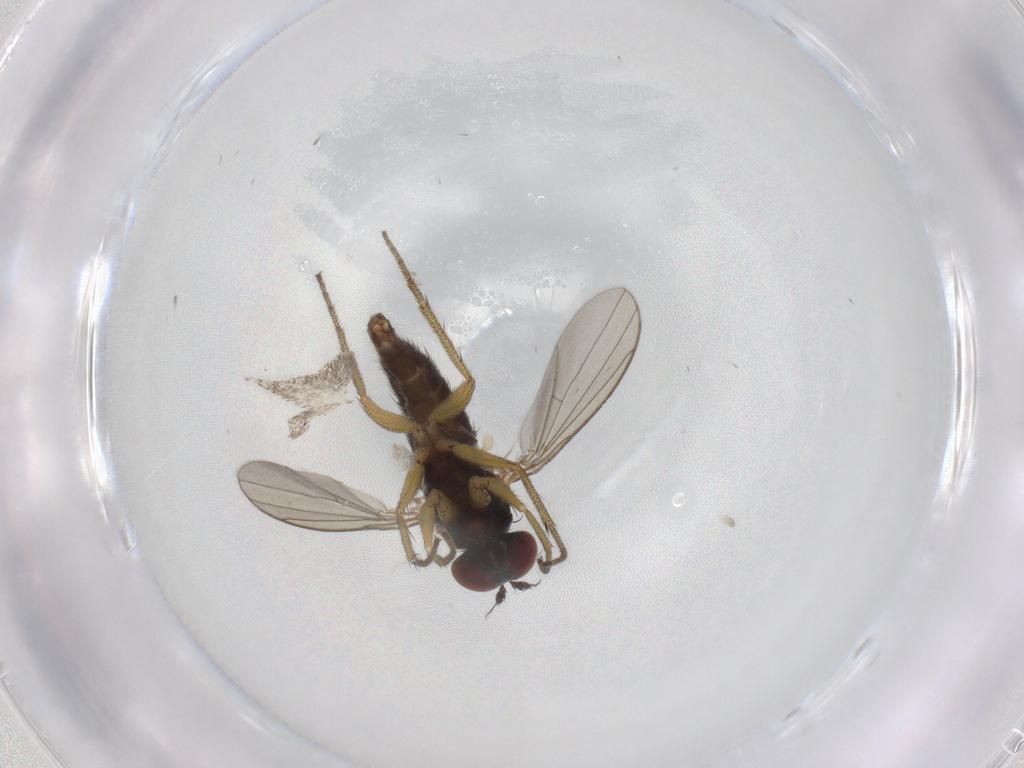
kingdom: Animalia
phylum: Arthropoda
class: Insecta
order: Diptera
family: Dolichopodidae
